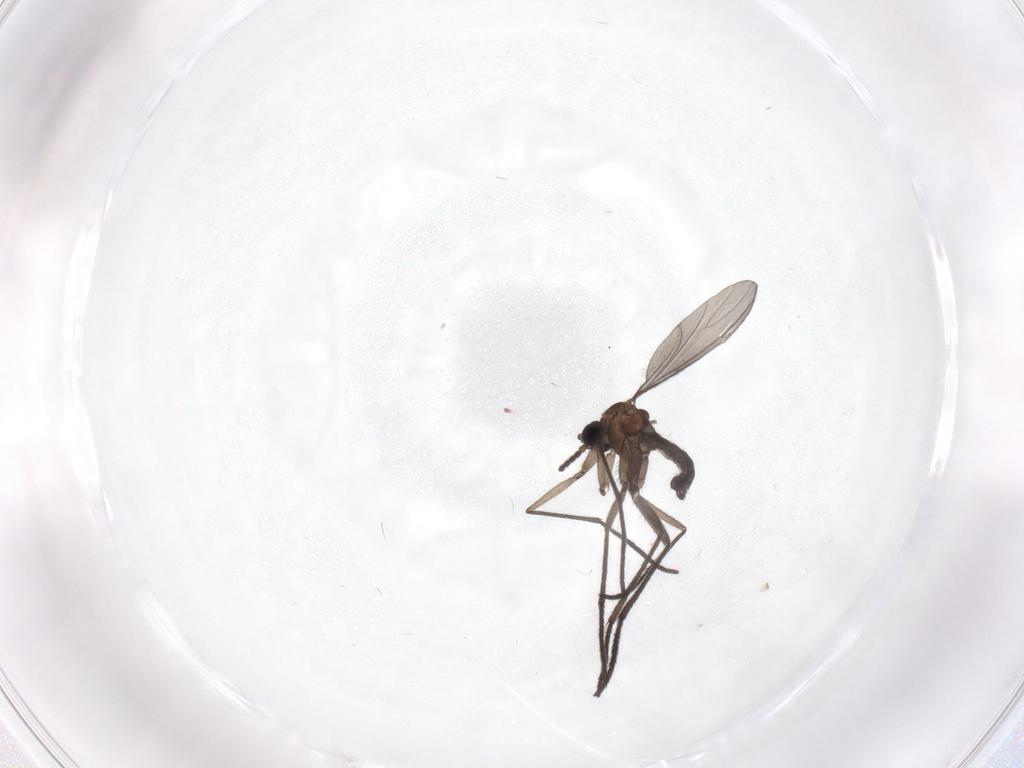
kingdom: Animalia
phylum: Arthropoda
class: Insecta
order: Diptera
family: Sciaridae
